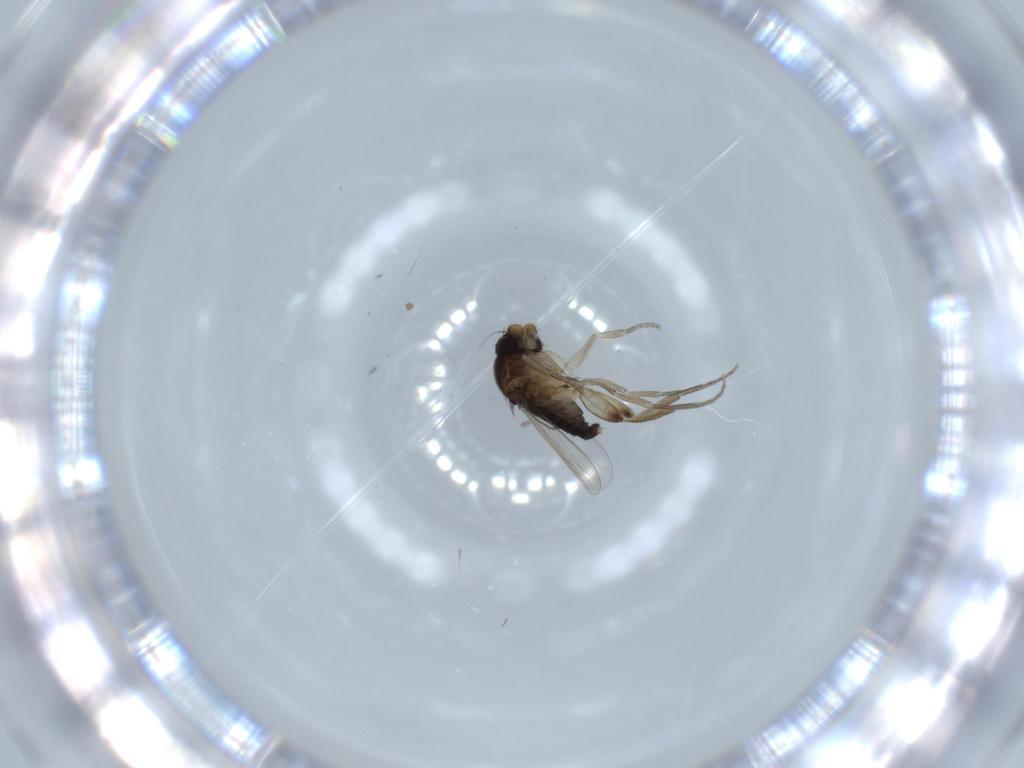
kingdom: Animalia
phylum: Arthropoda
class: Insecta
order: Diptera
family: Phoridae
